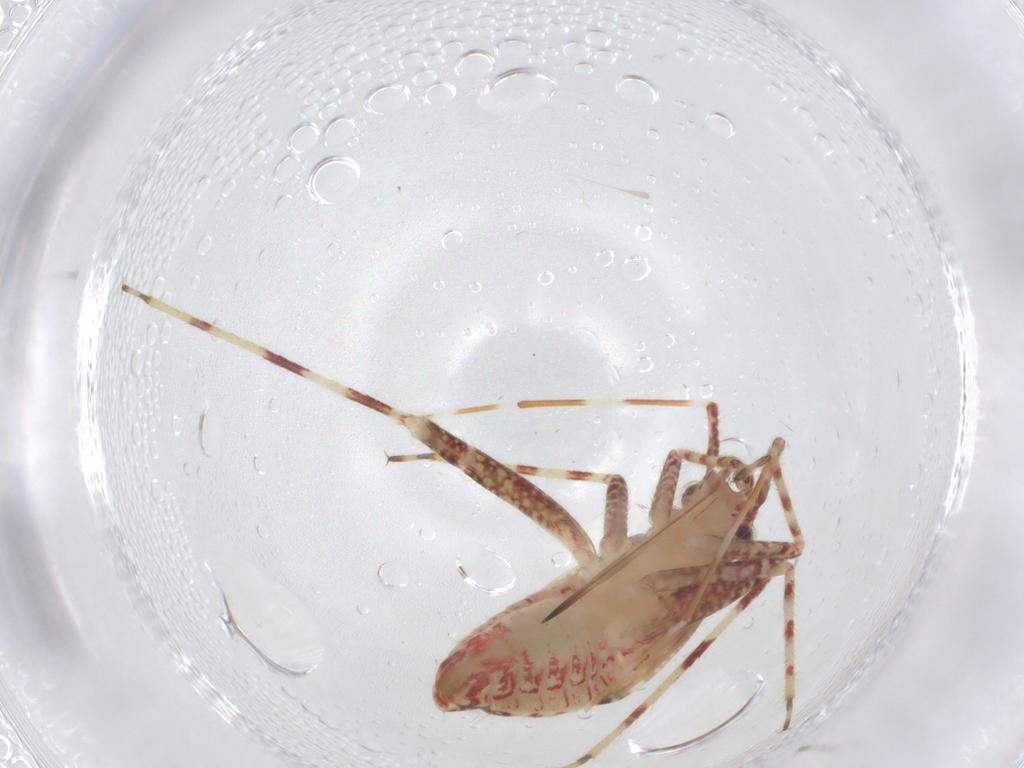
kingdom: Animalia
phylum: Arthropoda
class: Insecta
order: Hemiptera
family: Miridae
